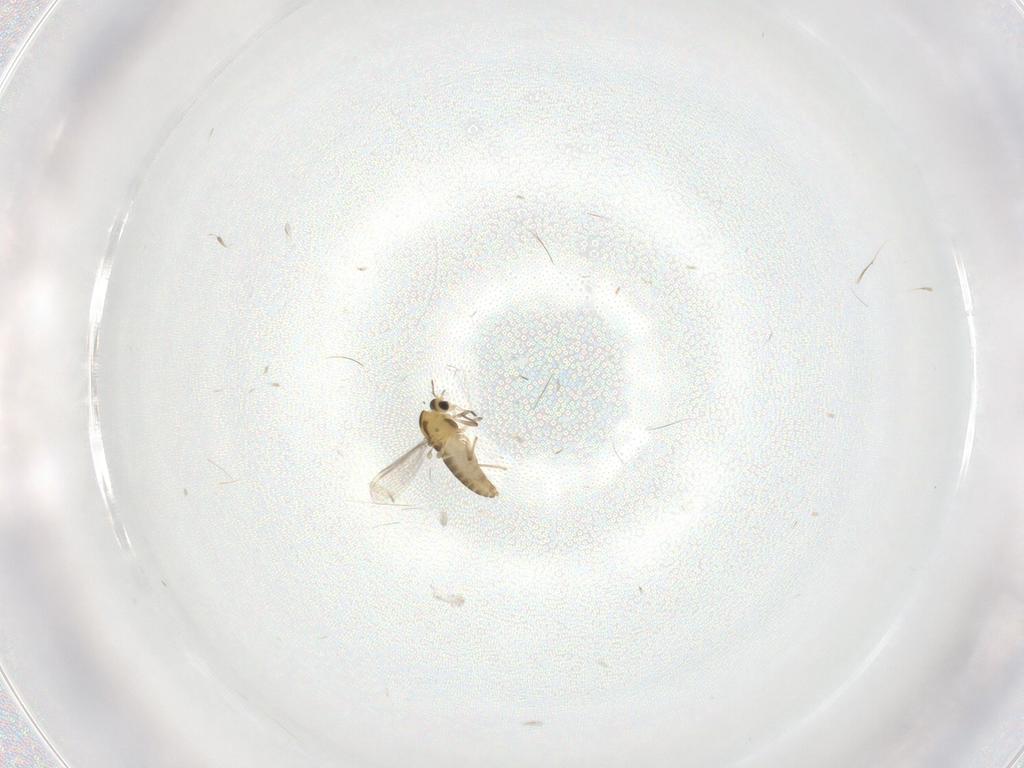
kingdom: Animalia
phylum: Arthropoda
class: Insecta
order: Diptera
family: Chironomidae
